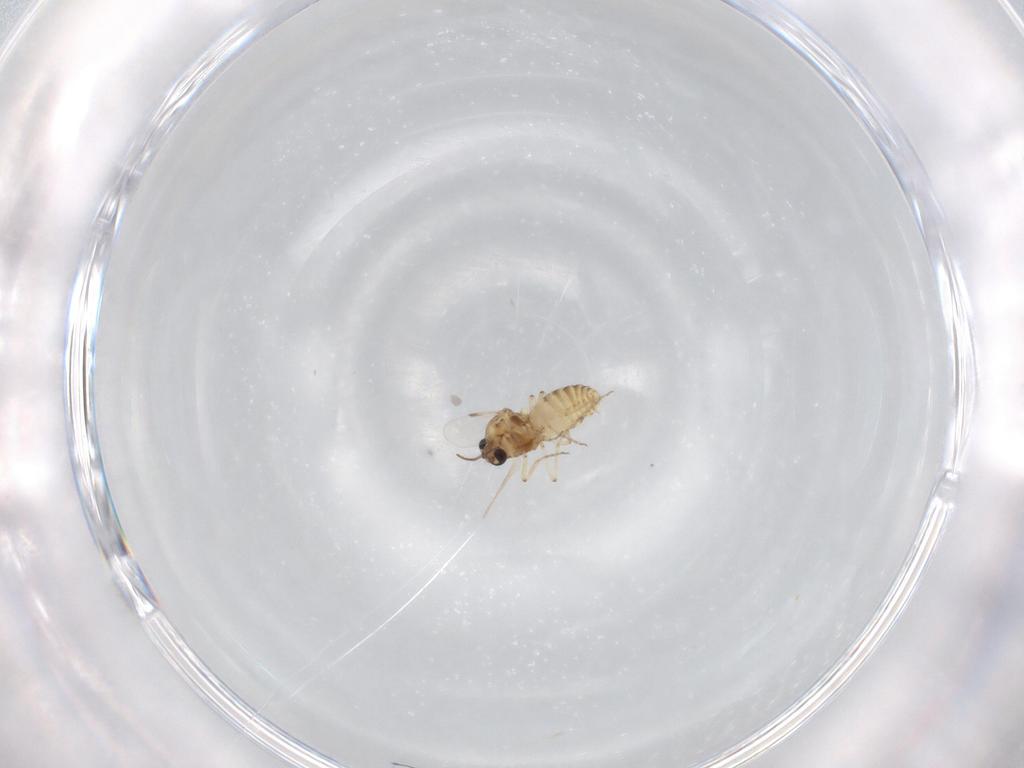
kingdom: Animalia
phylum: Arthropoda
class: Insecta
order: Diptera
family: Ceratopogonidae
